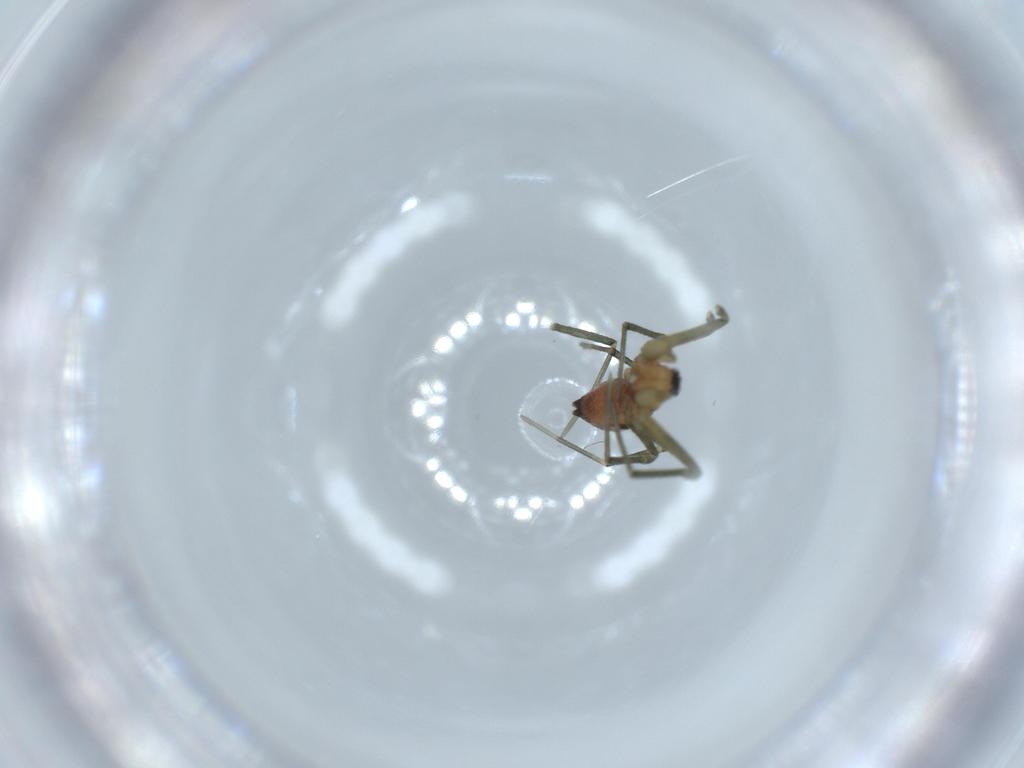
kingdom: Animalia
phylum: Arthropoda
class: Arachnida
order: Araneae
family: Linyphiidae
